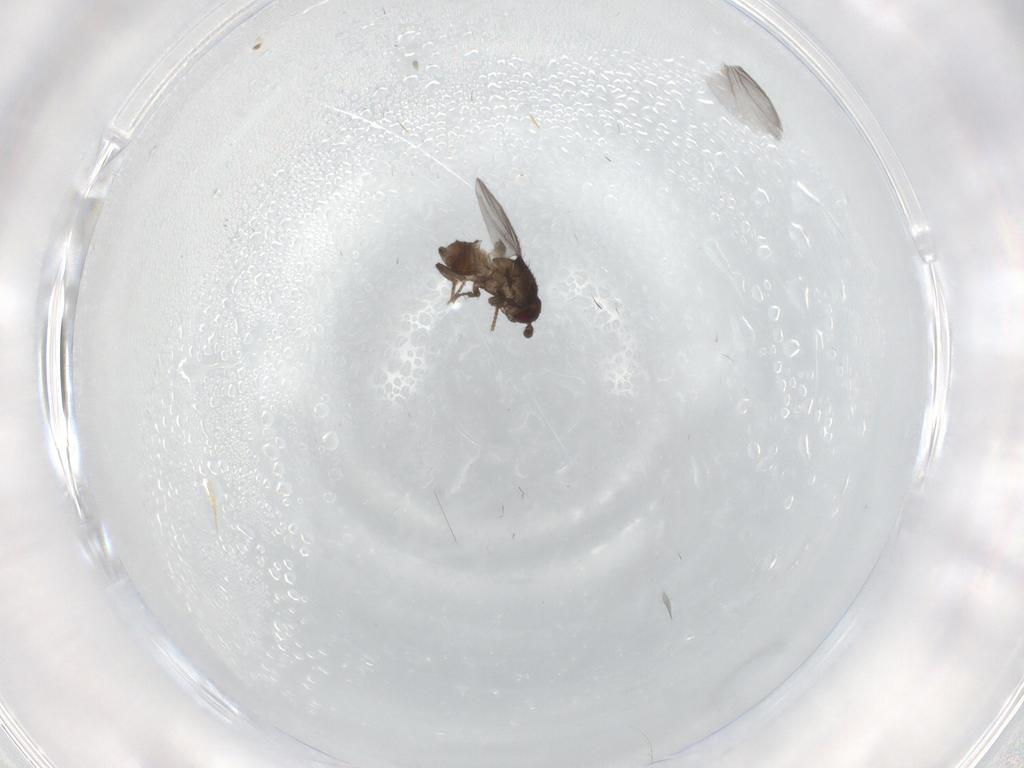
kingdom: Animalia
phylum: Arthropoda
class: Insecta
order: Diptera
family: Sphaeroceridae
